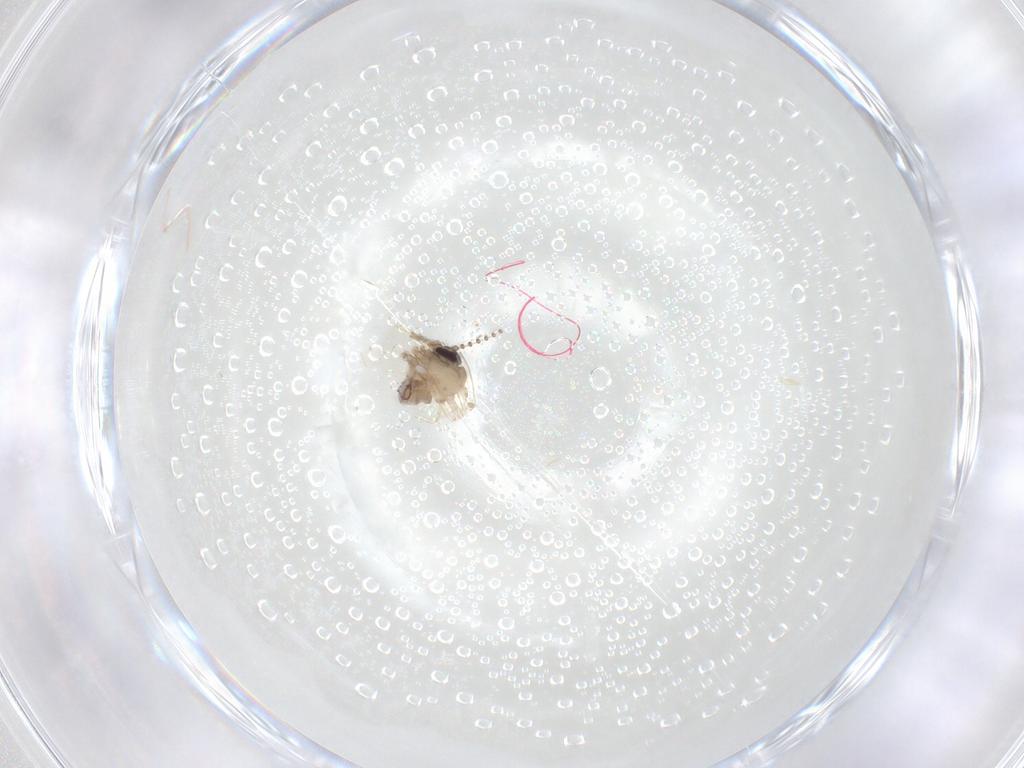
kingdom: Animalia
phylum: Arthropoda
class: Insecta
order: Diptera
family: Psychodidae
